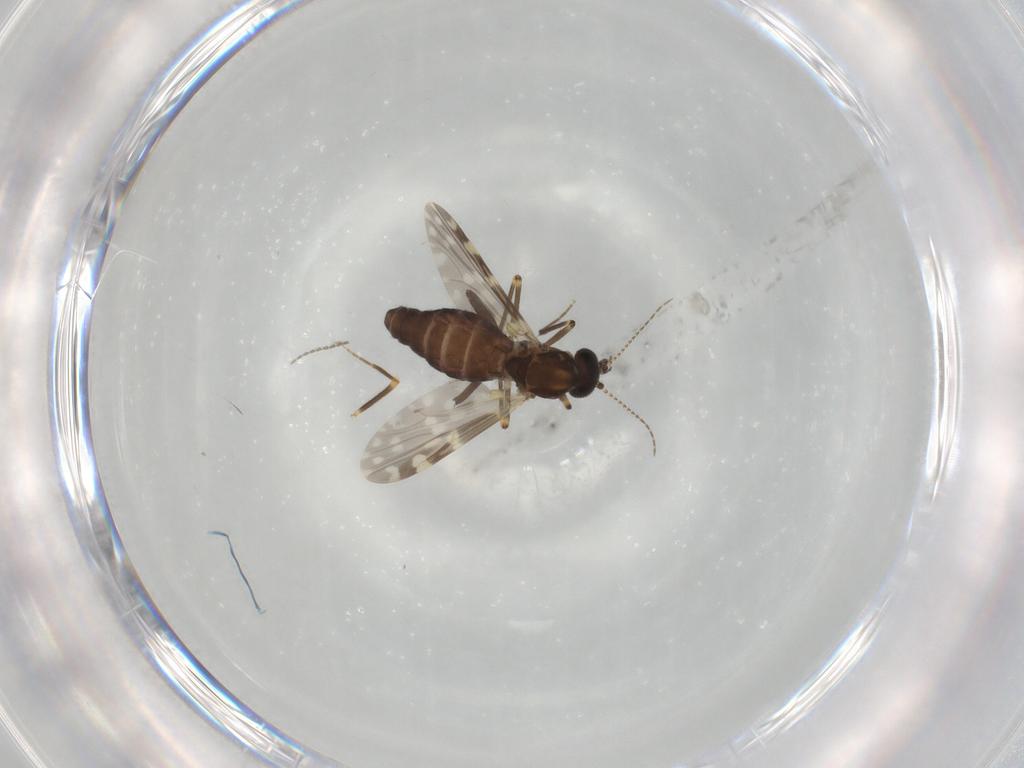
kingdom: Animalia
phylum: Arthropoda
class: Insecta
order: Diptera
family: Ceratopogonidae
